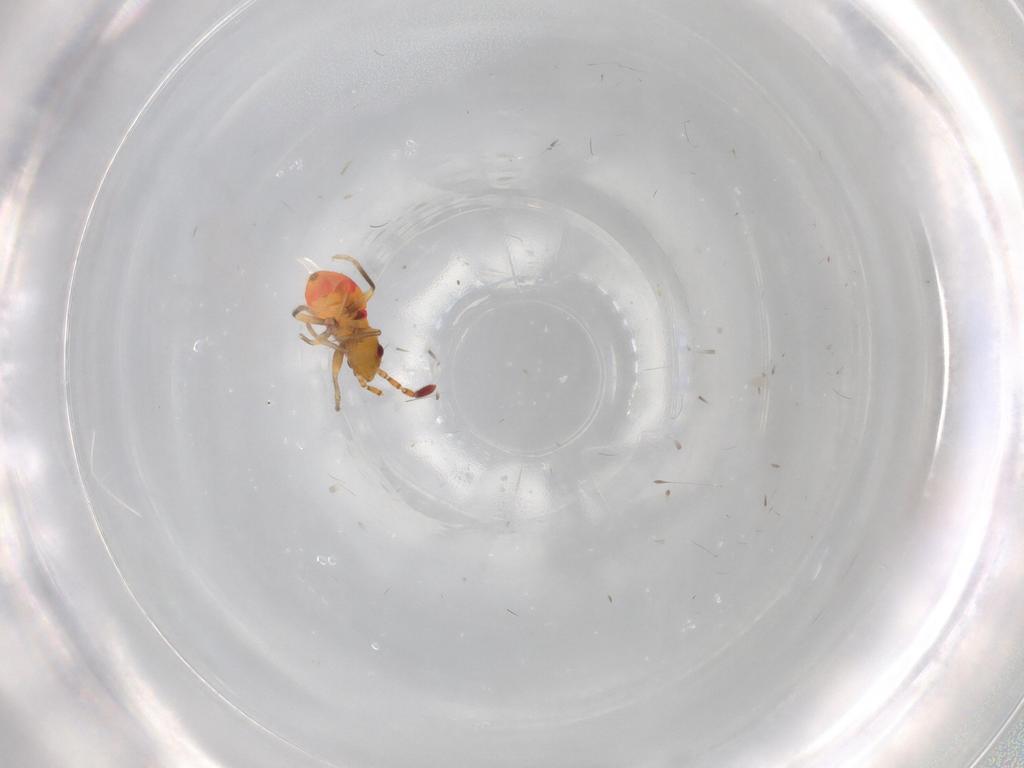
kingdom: Animalia
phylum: Arthropoda
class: Insecta
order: Hemiptera
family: Rhyparochromidae
